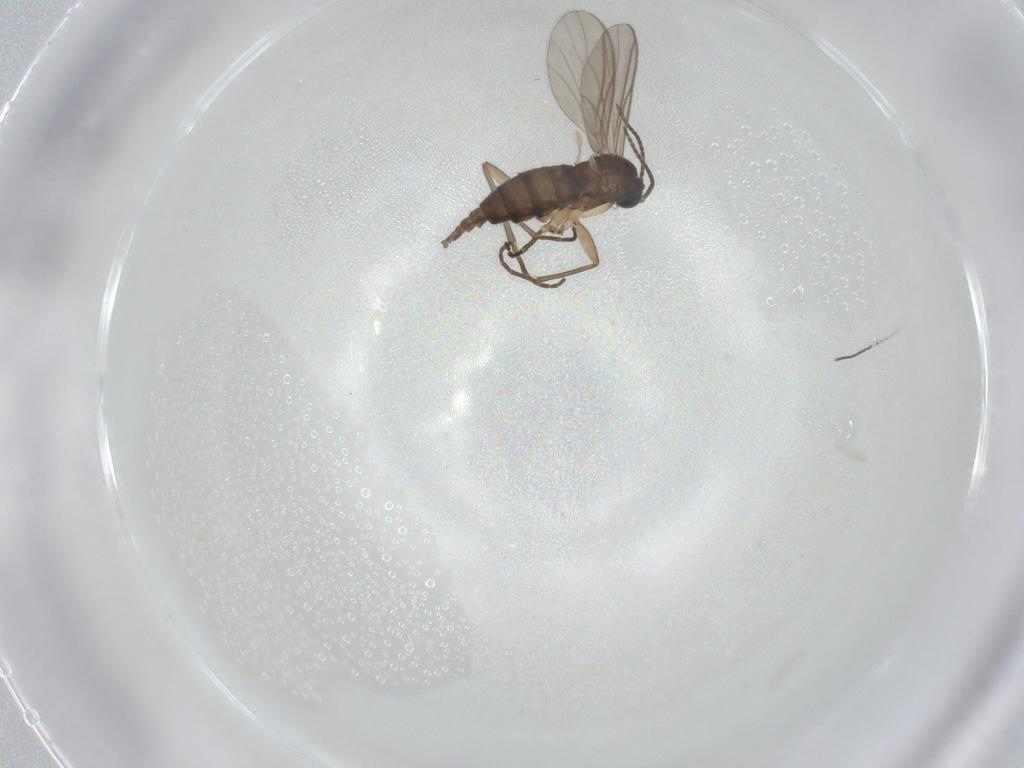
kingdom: Animalia
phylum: Arthropoda
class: Insecta
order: Diptera
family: Sciaridae
